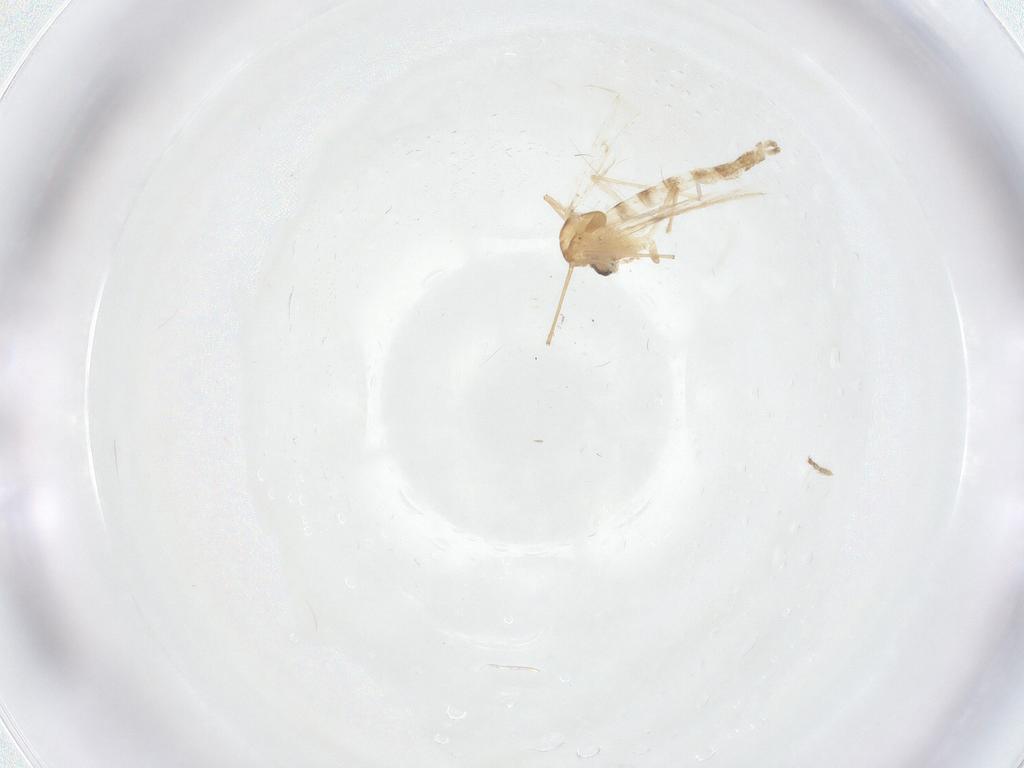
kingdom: Animalia
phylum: Arthropoda
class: Insecta
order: Diptera
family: Chironomidae
